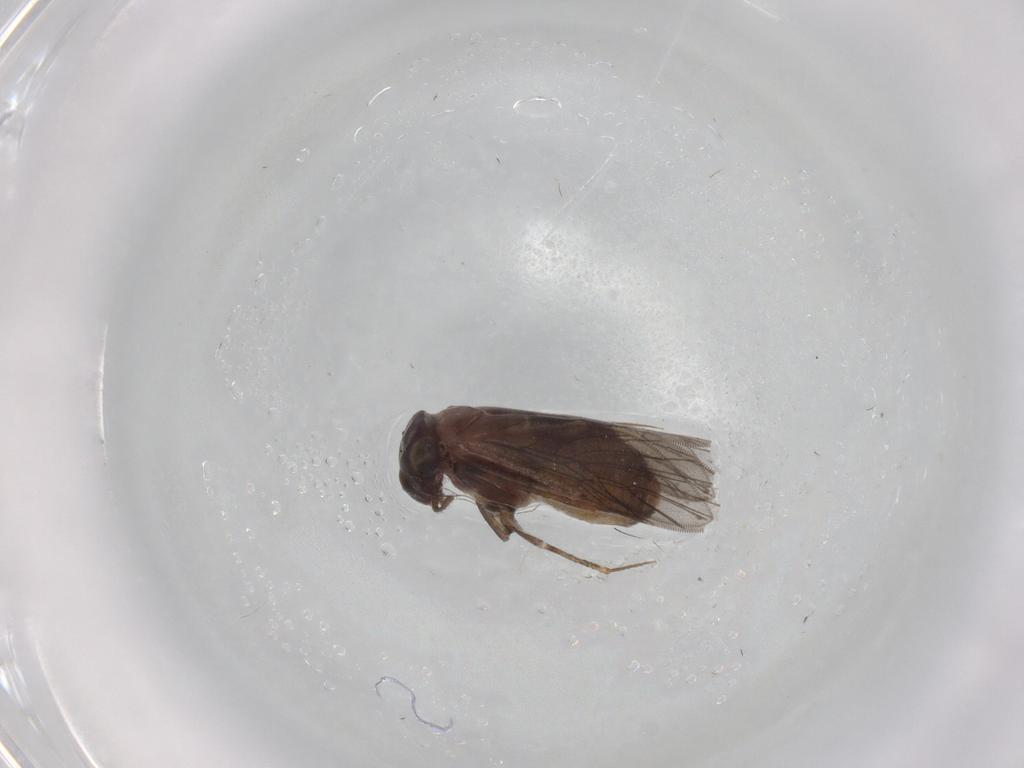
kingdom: Animalia
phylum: Arthropoda
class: Insecta
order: Psocodea
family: Lepidopsocidae
